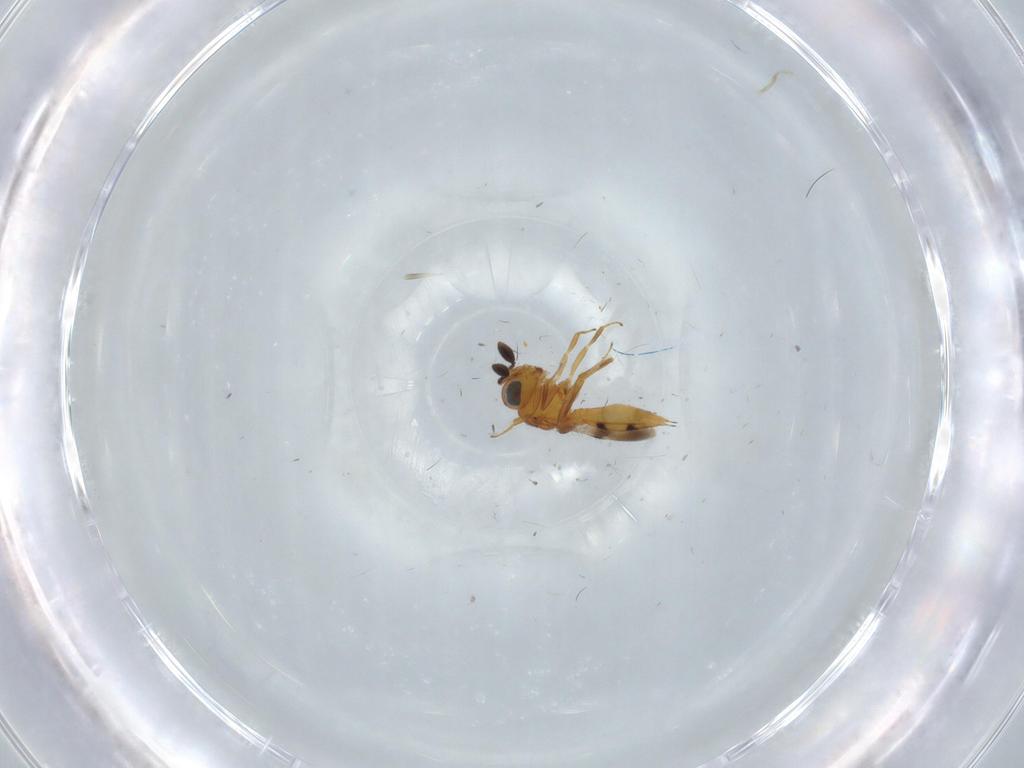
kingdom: Animalia
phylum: Arthropoda
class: Insecta
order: Hymenoptera
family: Scelionidae
